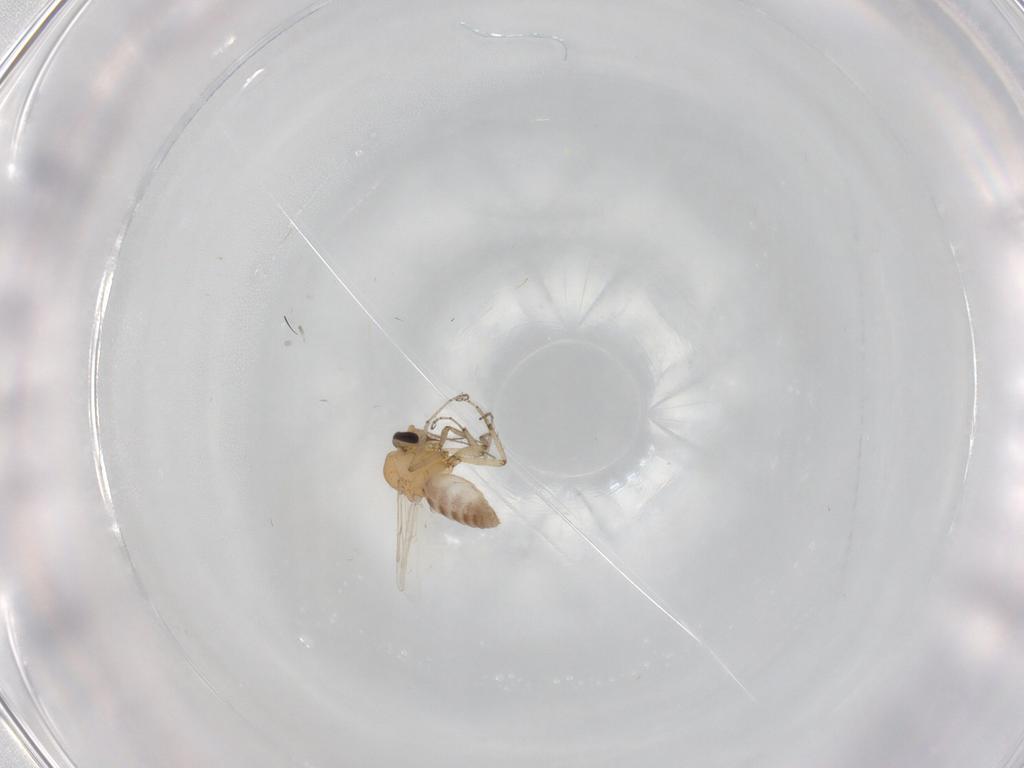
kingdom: Animalia
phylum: Arthropoda
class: Insecta
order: Diptera
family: Ceratopogonidae
